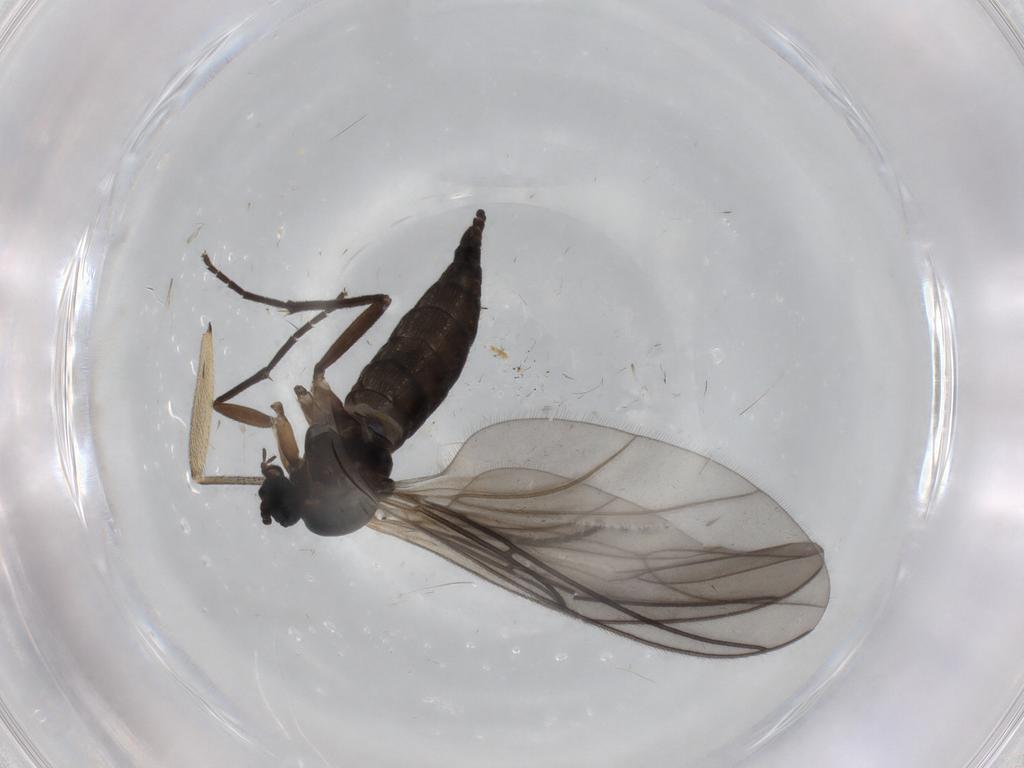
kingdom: Animalia
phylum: Arthropoda
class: Insecta
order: Diptera
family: Sciaridae
